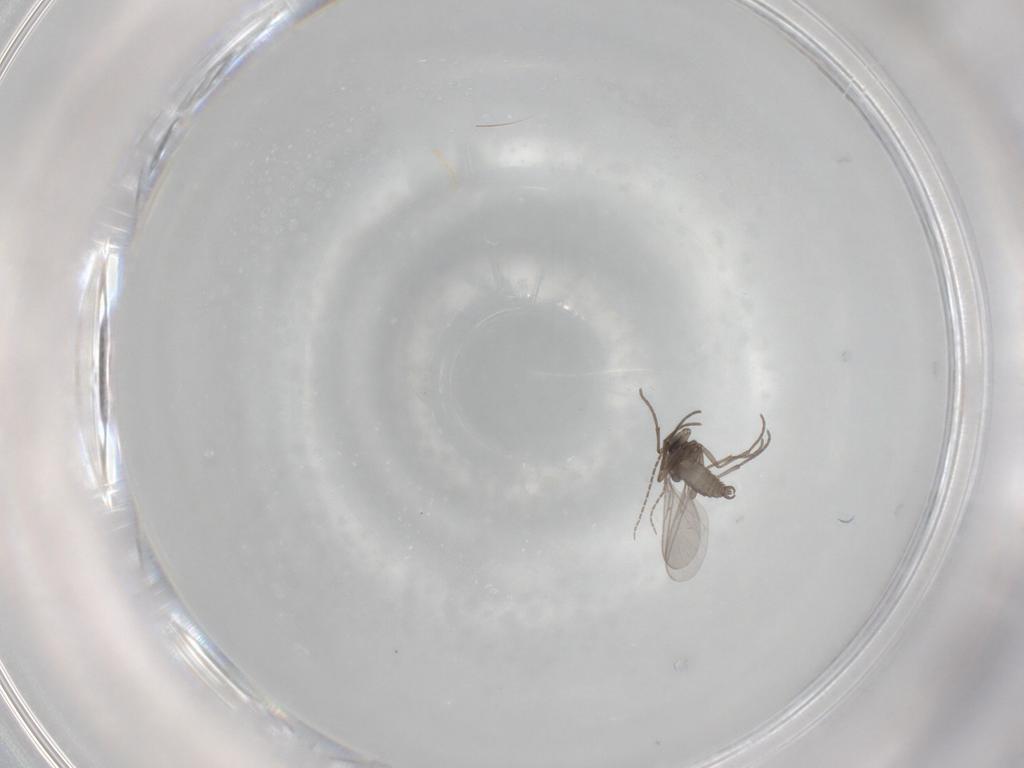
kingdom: Animalia
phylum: Arthropoda
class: Insecta
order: Diptera
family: Sciaridae
